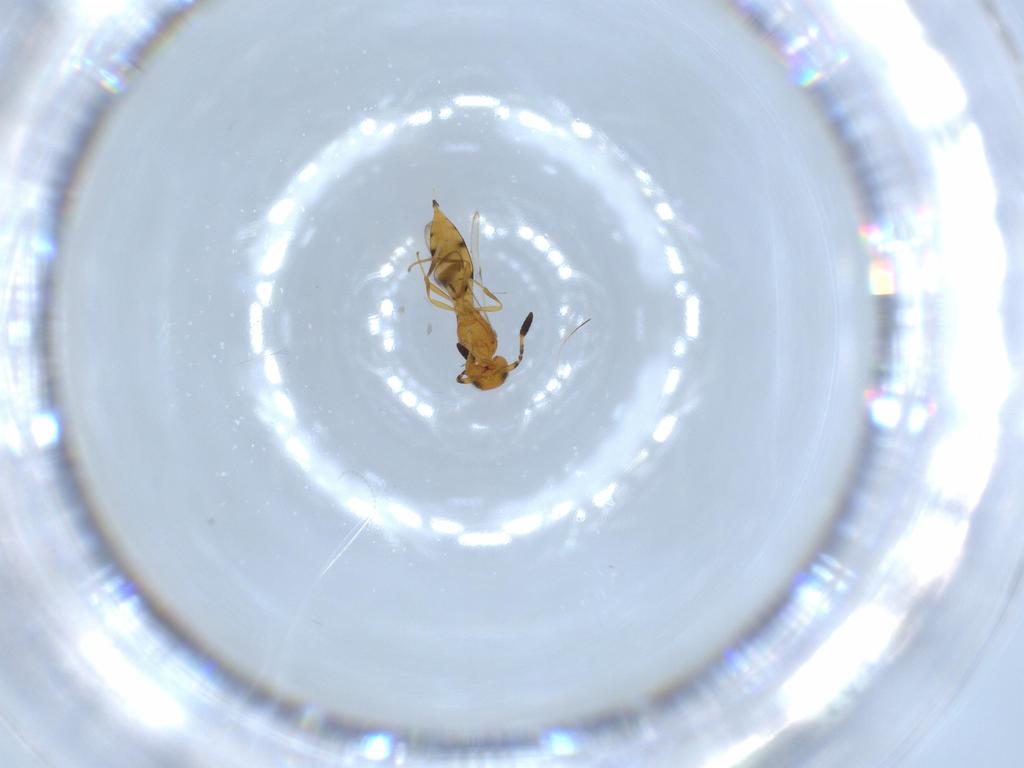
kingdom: Animalia
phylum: Arthropoda
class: Insecta
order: Hymenoptera
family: Scelionidae
